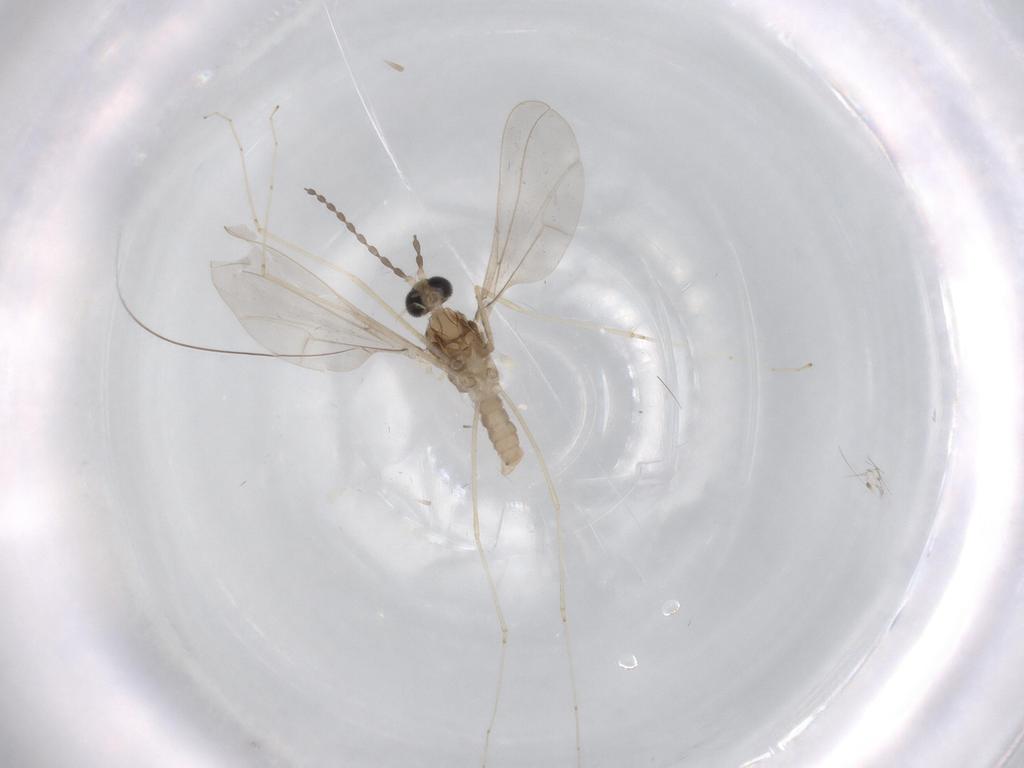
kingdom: Animalia
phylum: Arthropoda
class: Insecta
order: Diptera
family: Cecidomyiidae
